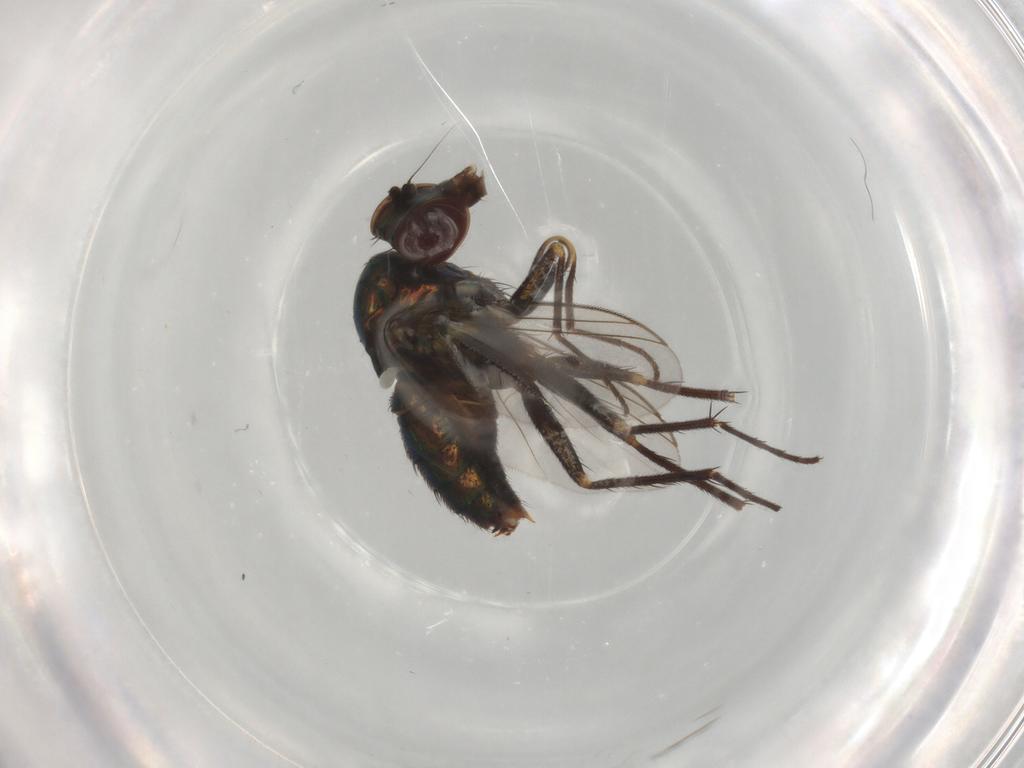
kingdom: Animalia
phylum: Arthropoda
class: Insecta
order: Diptera
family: Dolichopodidae
